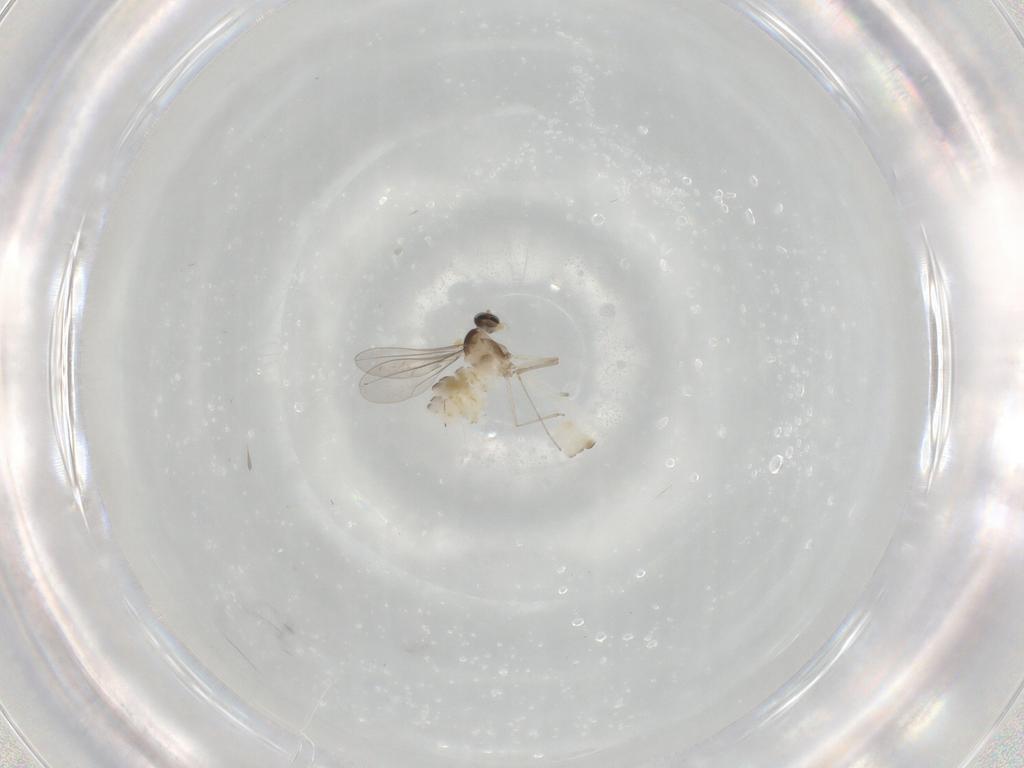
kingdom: Animalia
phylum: Arthropoda
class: Insecta
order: Diptera
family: Cecidomyiidae
